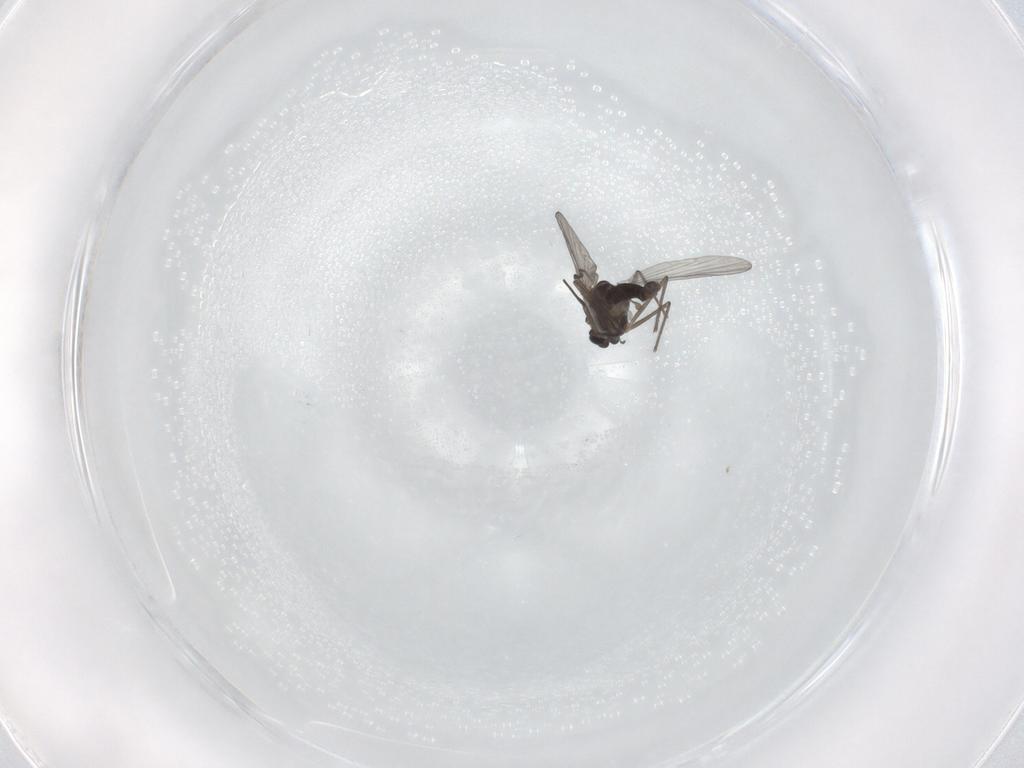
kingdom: Animalia
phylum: Arthropoda
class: Insecta
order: Diptera
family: Chironomidae
